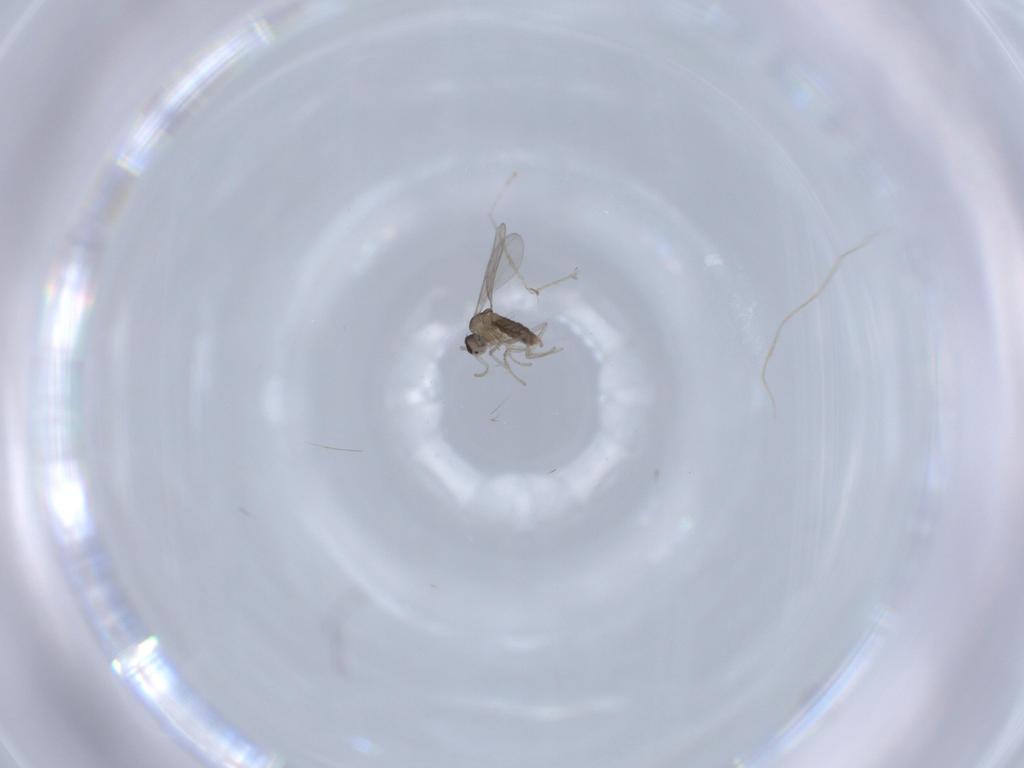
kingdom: Animalia
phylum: Arthropoda
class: Insecta
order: Diptera
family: Cecidomyiidae
